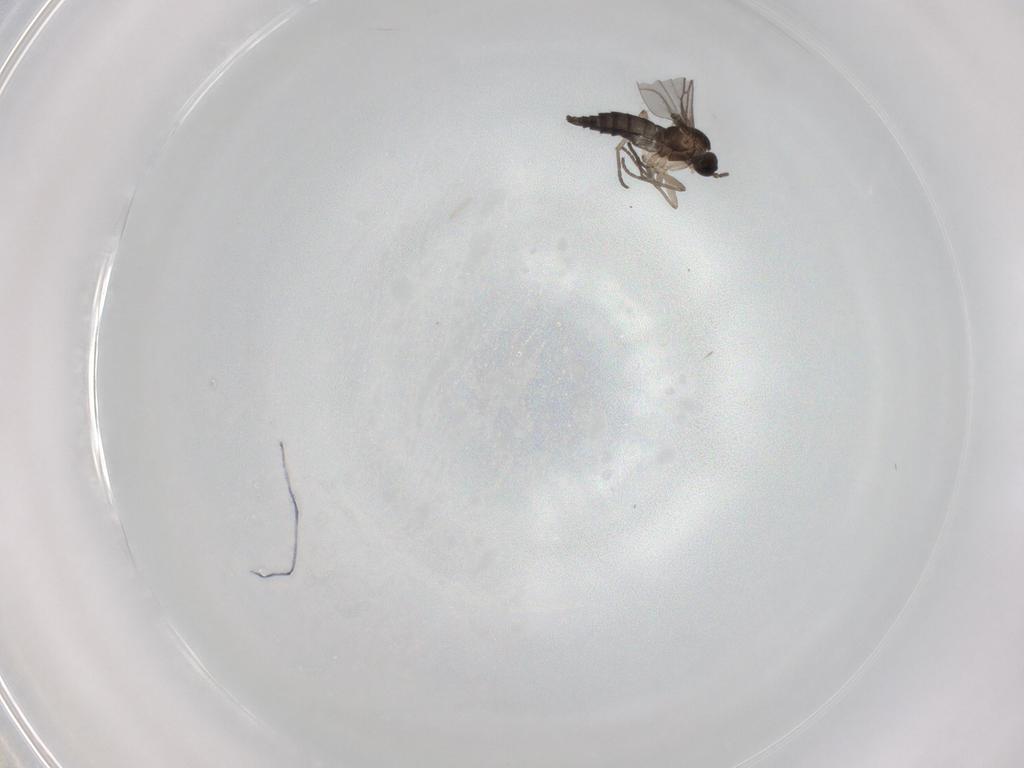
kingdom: Animalia
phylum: Arthropoda
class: Insecta
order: Diptera
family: Sciaridae
